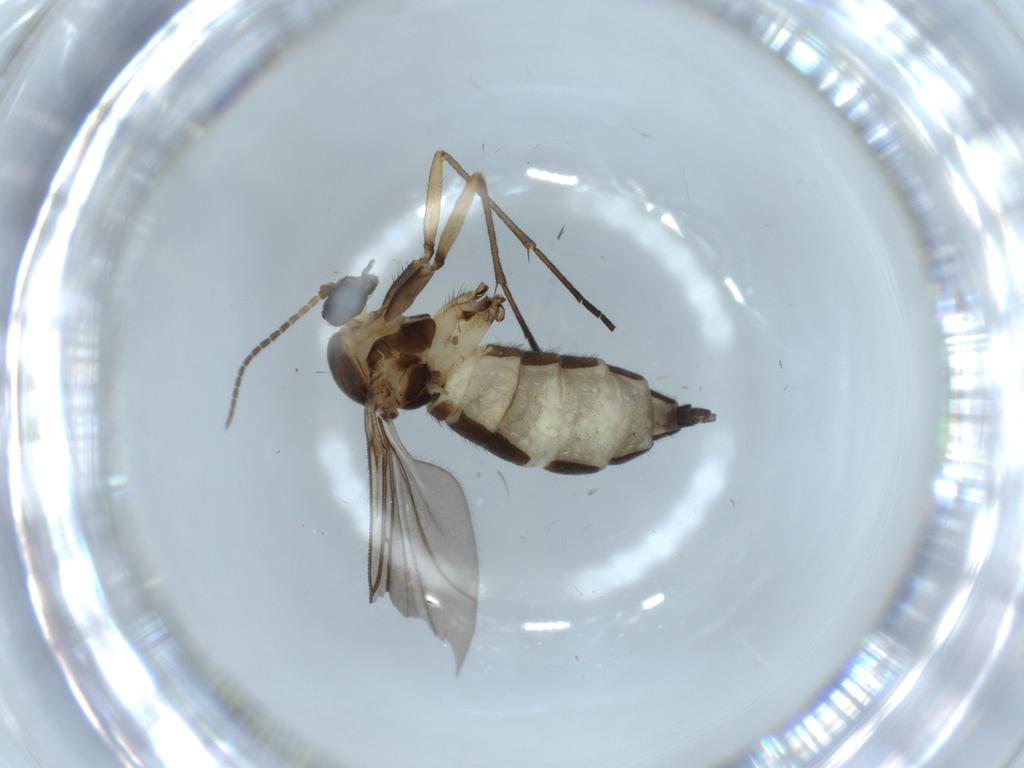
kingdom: Animalia
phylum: Arthropoda
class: Insecta
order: Diptera
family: Sciaridae
